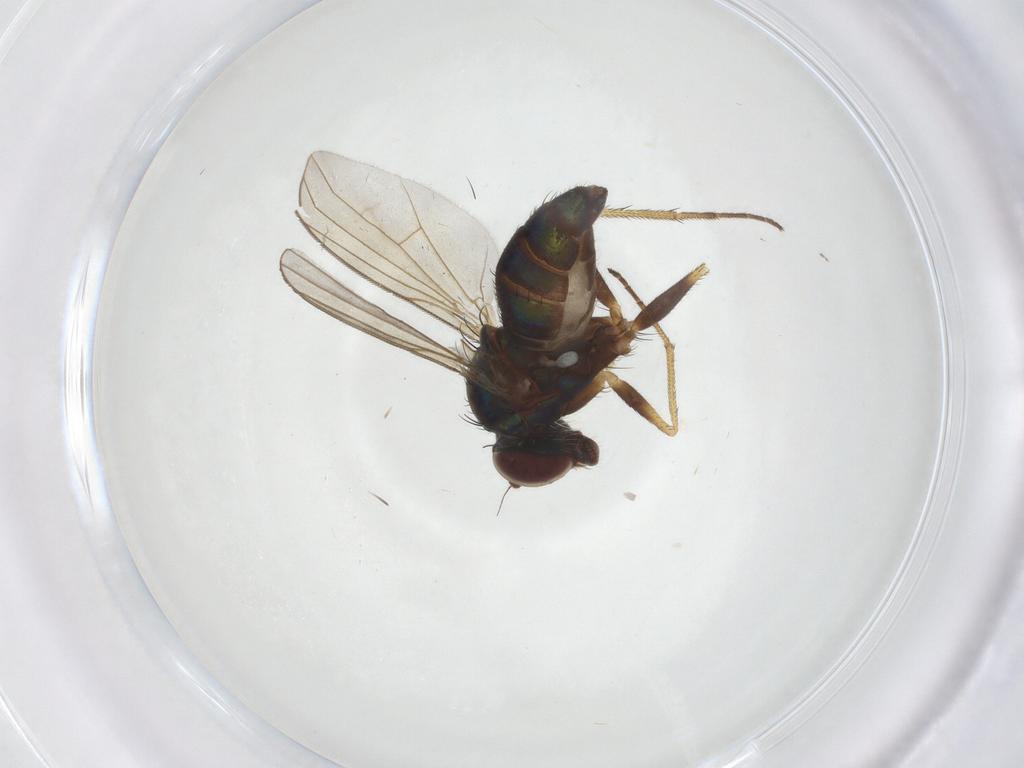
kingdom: Animalia
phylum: Arthropoda
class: Insecta
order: Diptera
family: Dolichopodidae
